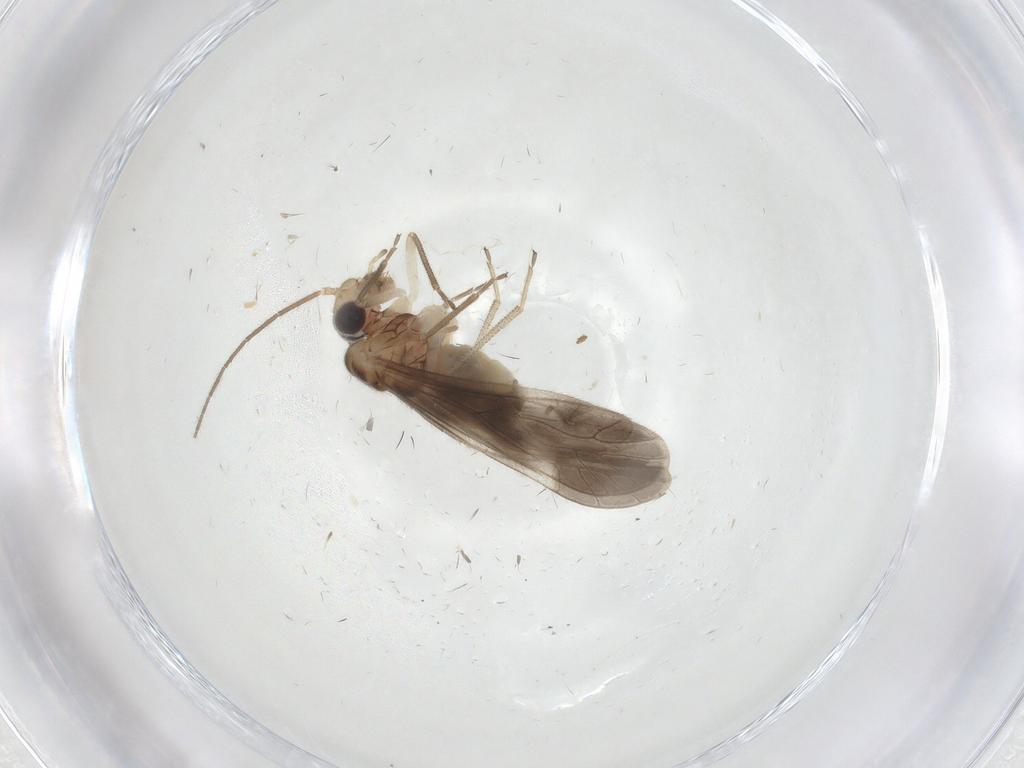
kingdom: Animalia
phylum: Arthropoda
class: Insecta
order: Psocodea
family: Caeciliusidae
